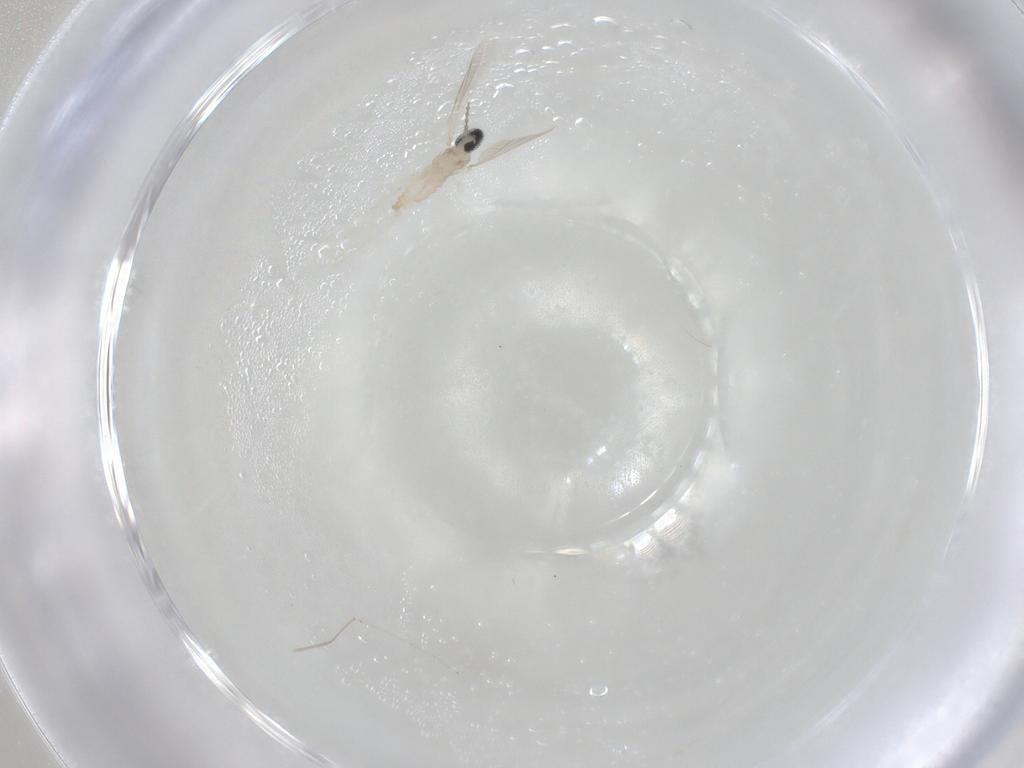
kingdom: Animalia
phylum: Arthropoda
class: Insecta
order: Diptera
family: Cecidomyiidae
